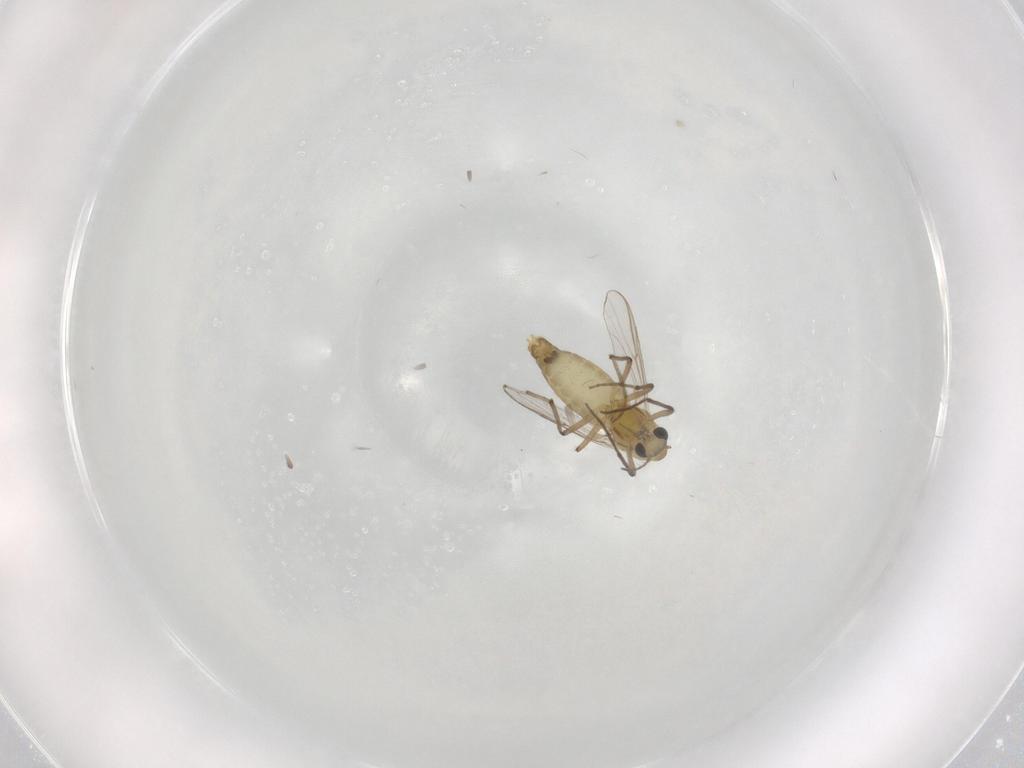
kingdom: Animalia
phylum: Arthropoda
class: Insecta
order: Diptera
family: Chironomidae
